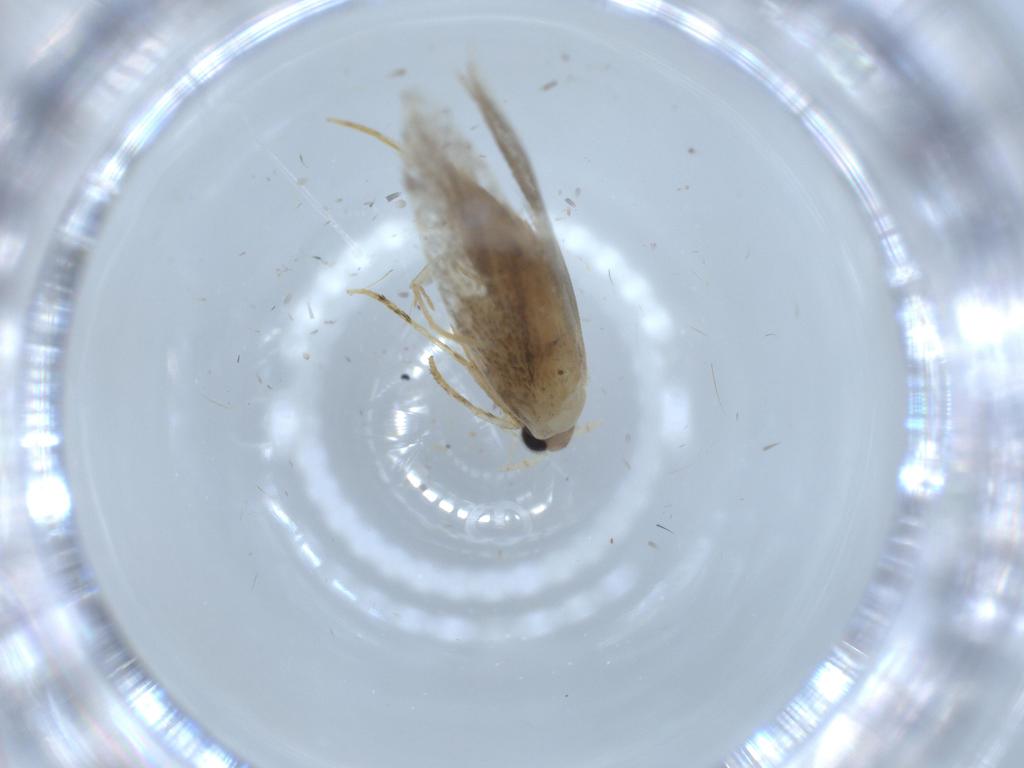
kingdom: Animalia
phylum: Arthropoda
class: Insecta
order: Lepidoptera
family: Tineidae
